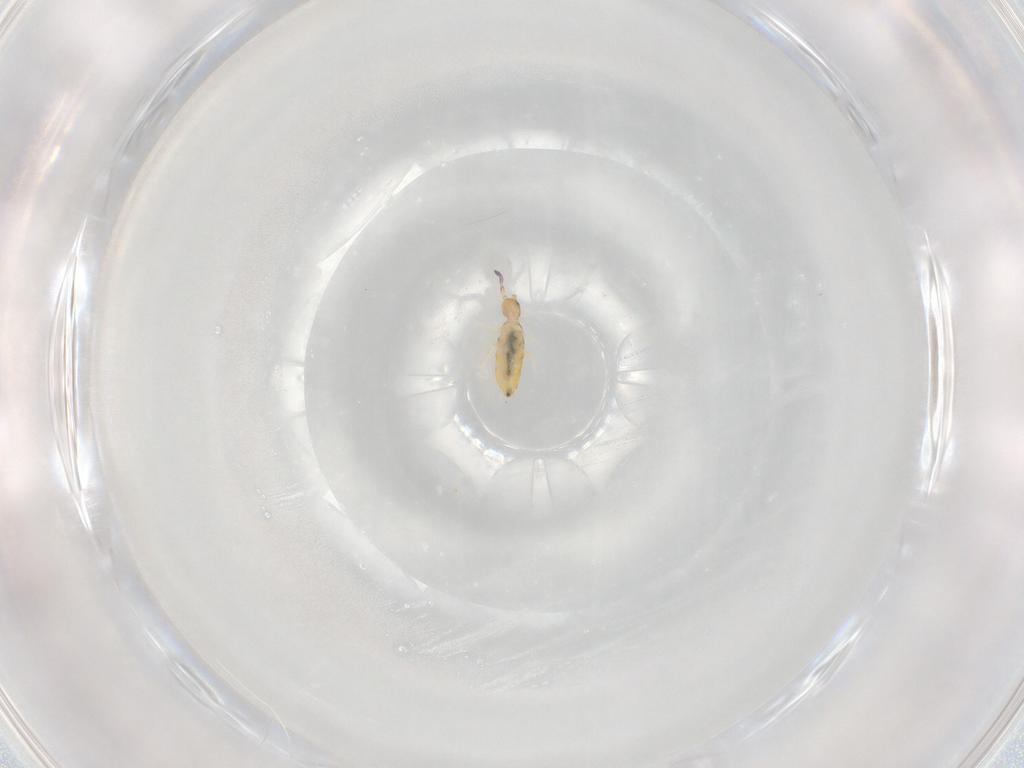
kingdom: Animalia
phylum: Arthropoda
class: Collembola
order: Entomobryomorpha
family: Entomobryidae
